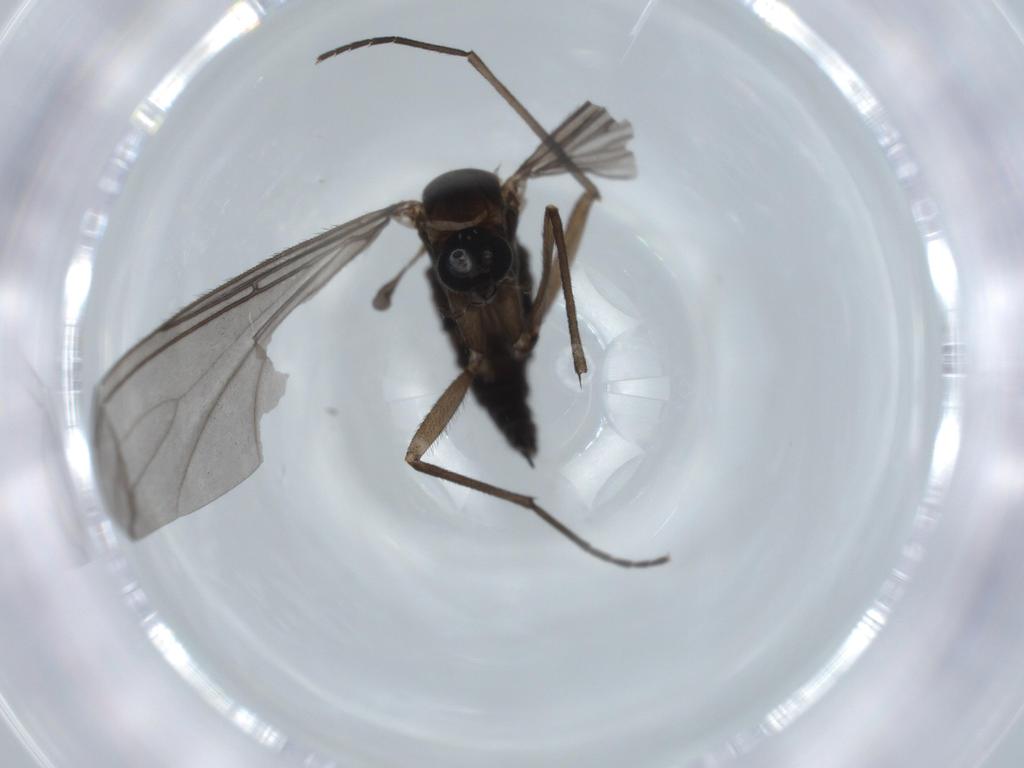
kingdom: Animalia
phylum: Arthropoda
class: Insecta
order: Diptera
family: Sciaridae
